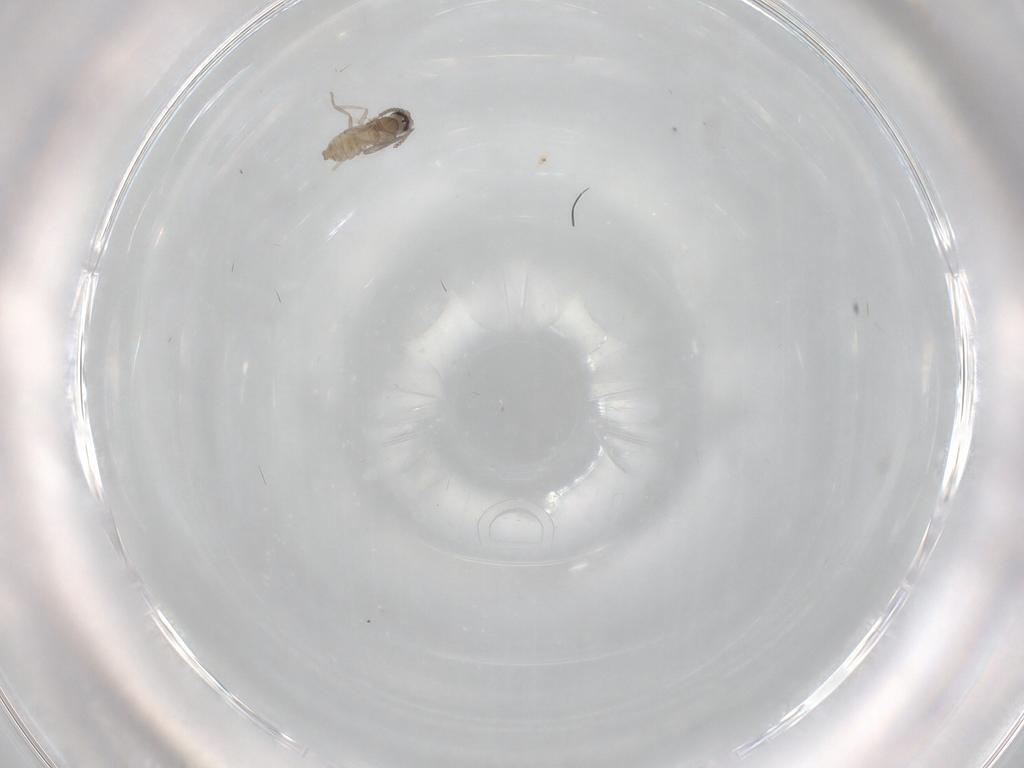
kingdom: Animalia
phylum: Arthropoda
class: Insecta
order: Diptera
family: Cecidomyiidae
